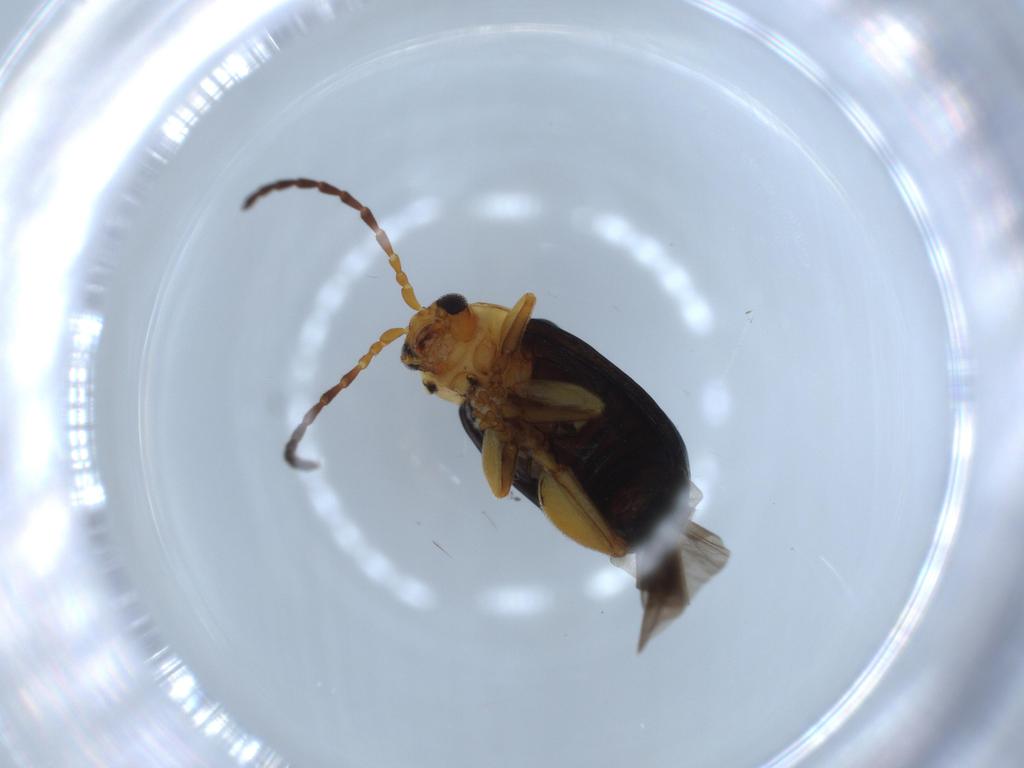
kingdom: Animalia
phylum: Arthropoda
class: Insecta
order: Coleoptera
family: Chrysomelidae
